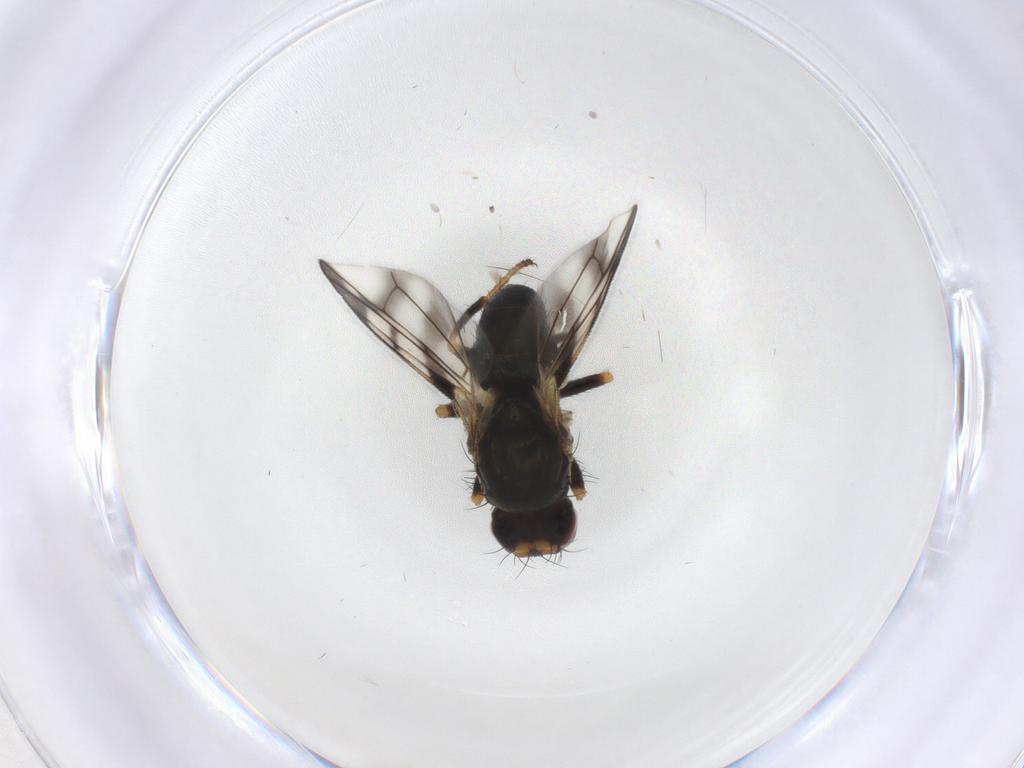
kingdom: Animalia
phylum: Arthropoda
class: Insecta
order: Diptera
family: Tephritidae
